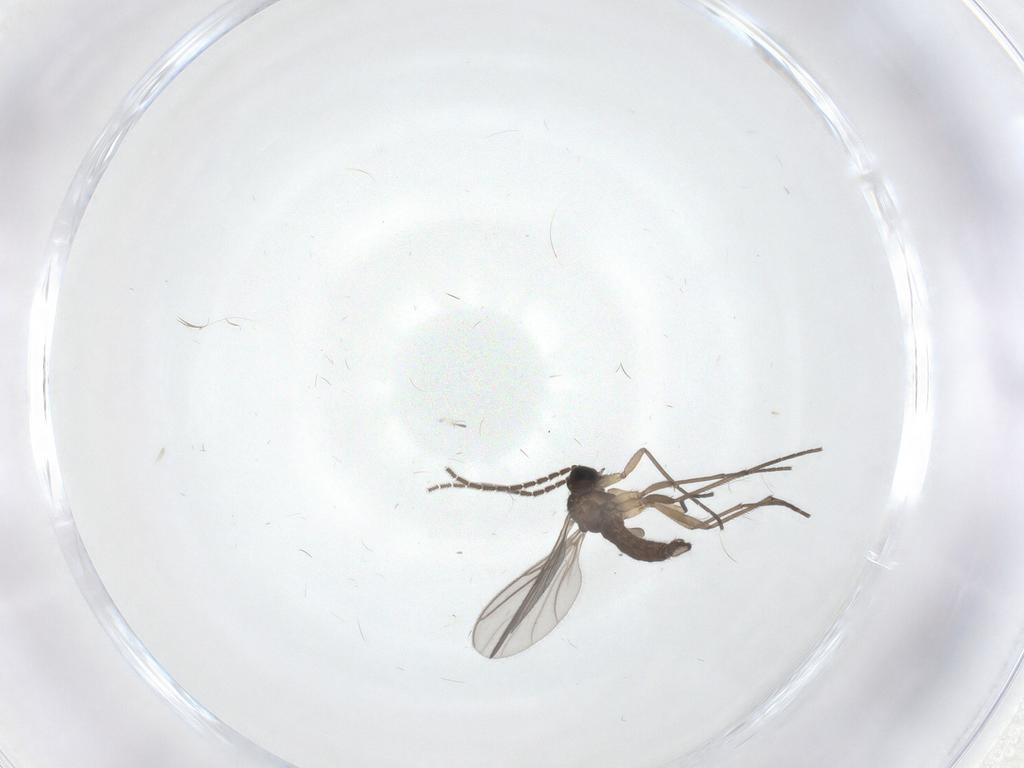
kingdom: Animalia
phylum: Arthropoda
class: Insecta
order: Diptera
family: Sciaridae
